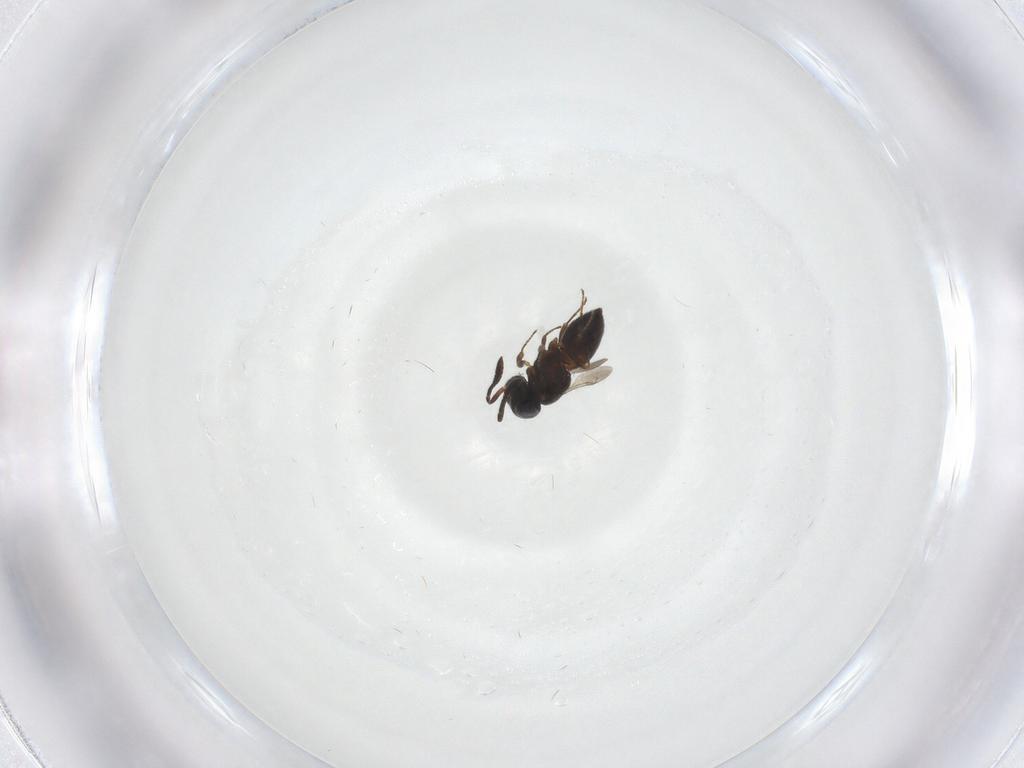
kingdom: Animalia
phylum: Arthropoda
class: Insecta
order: Hymenoptera
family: Scelionidae
